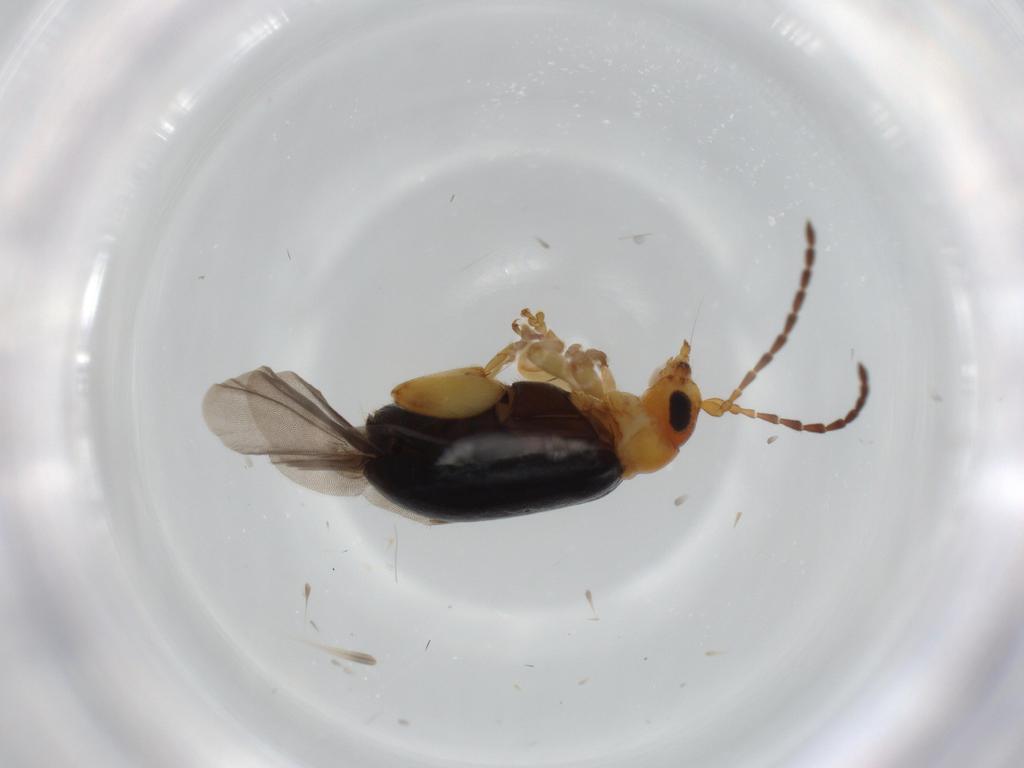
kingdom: Animalia
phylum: Arthropoda
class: Insecta
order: Coleoptera
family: Chrysomelidae
